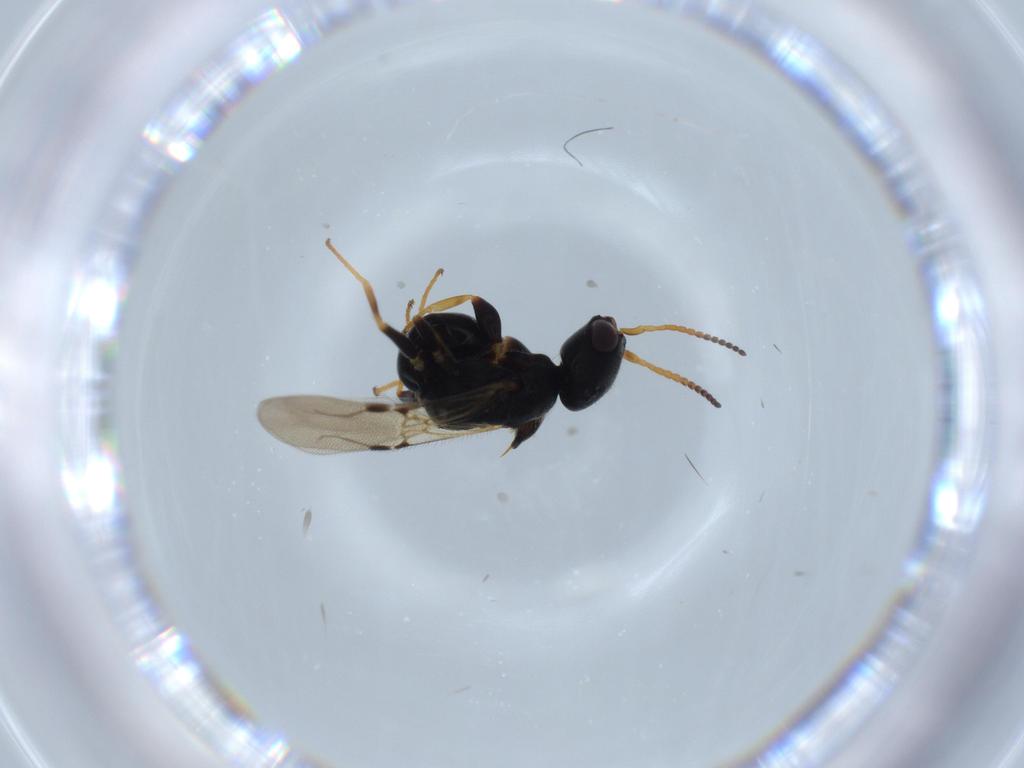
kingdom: Animalia
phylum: Arthropoda
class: Insecta
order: Hymenoptera
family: Bethylidae
